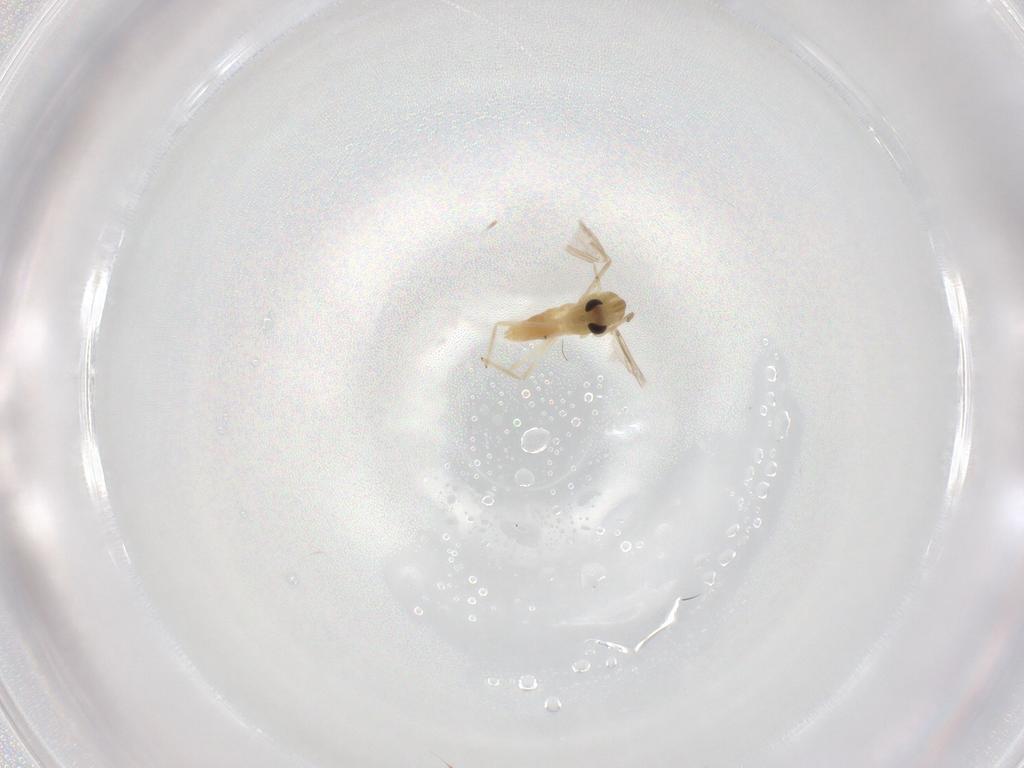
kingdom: Animalia
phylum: Arthropoda
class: Insecta
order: Diptera
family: Chironomidae
